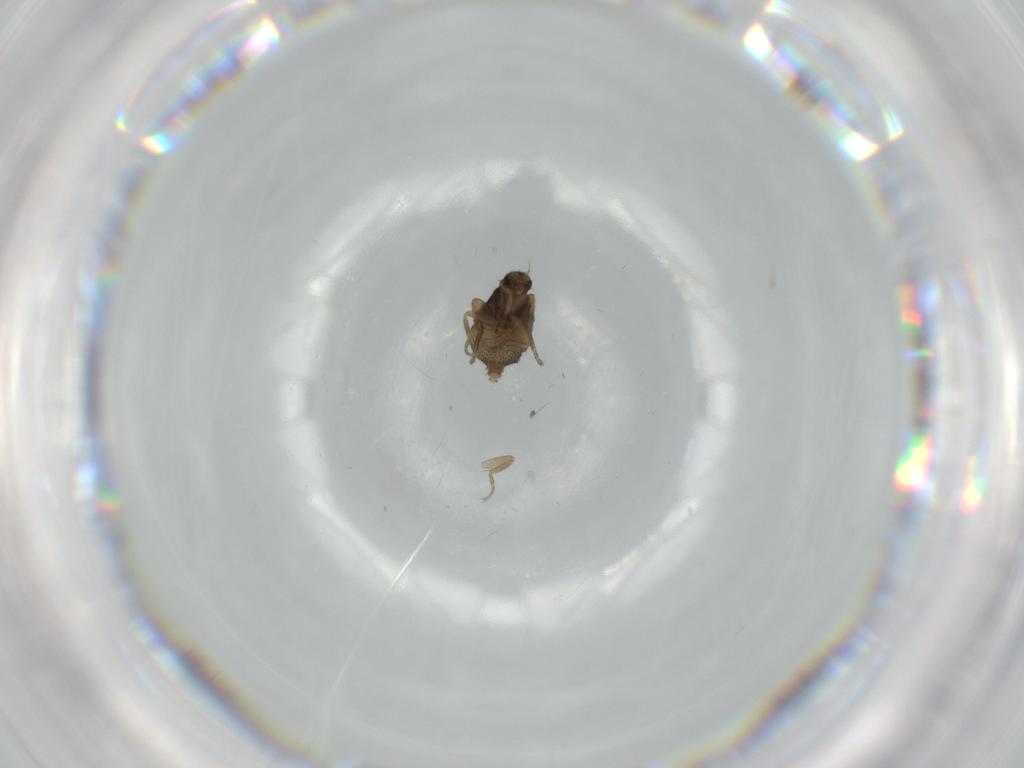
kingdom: Animalia
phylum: Arthropoda
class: Insecta
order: Diptera
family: Phoridae
